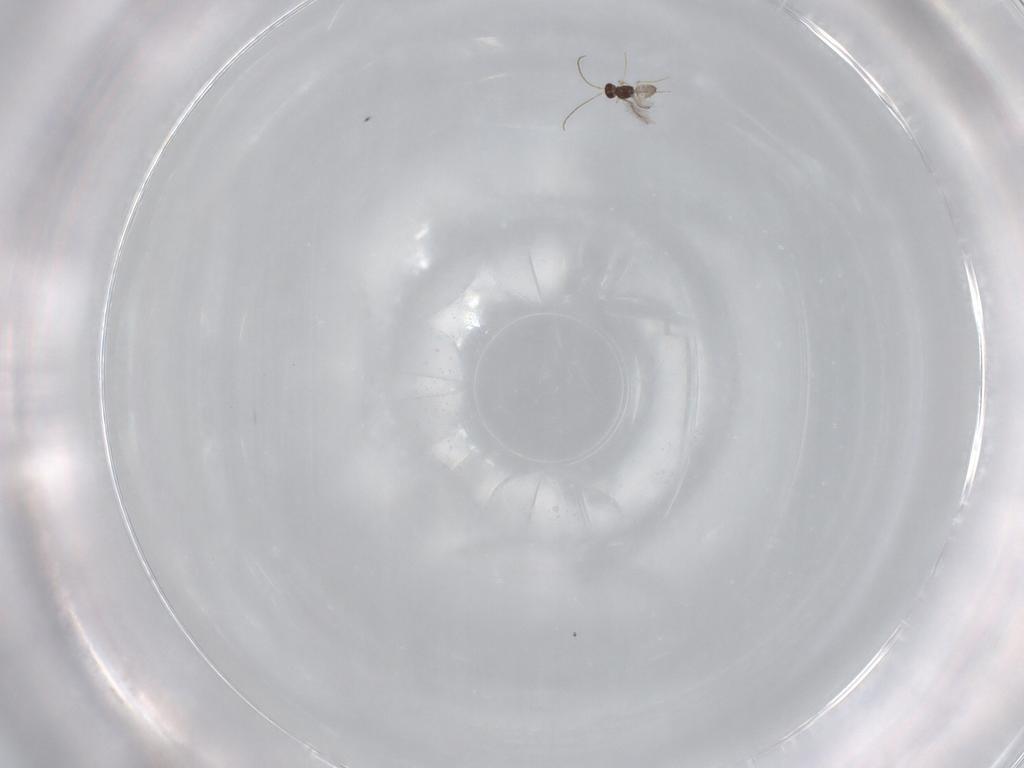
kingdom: Animalia
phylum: Arthropoda
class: Insecta
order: Hymenoptera
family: Mymaridae
